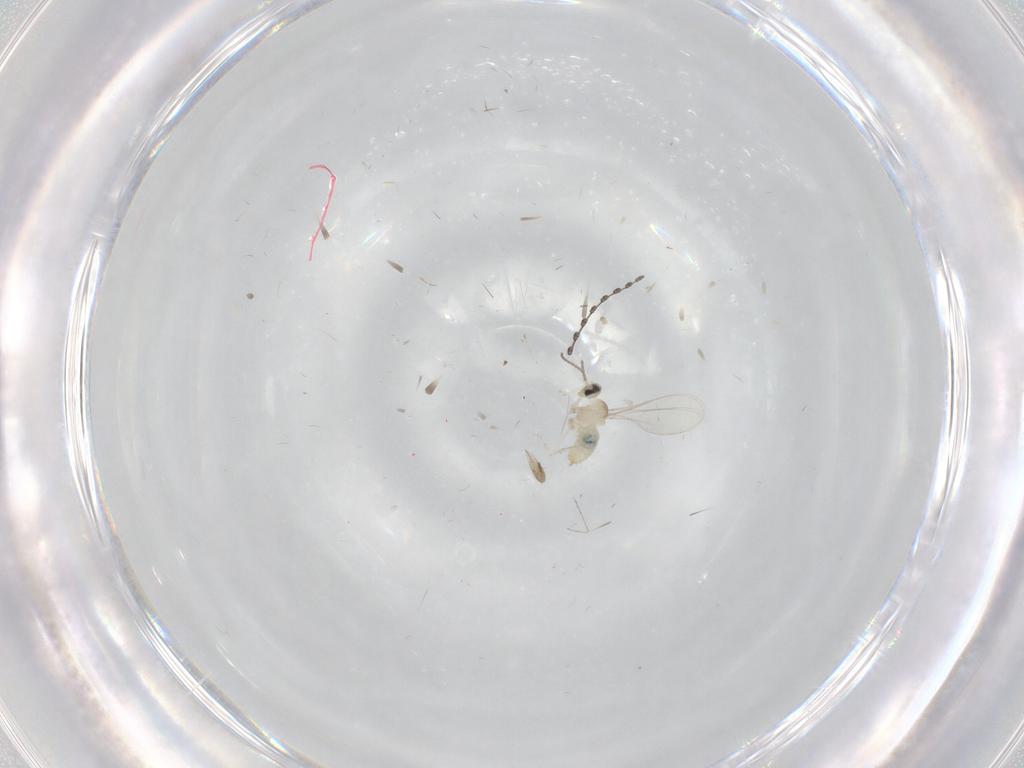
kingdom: Animalia
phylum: Arthropoda
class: Insecta
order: Diptera
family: Cecidomyiidae
